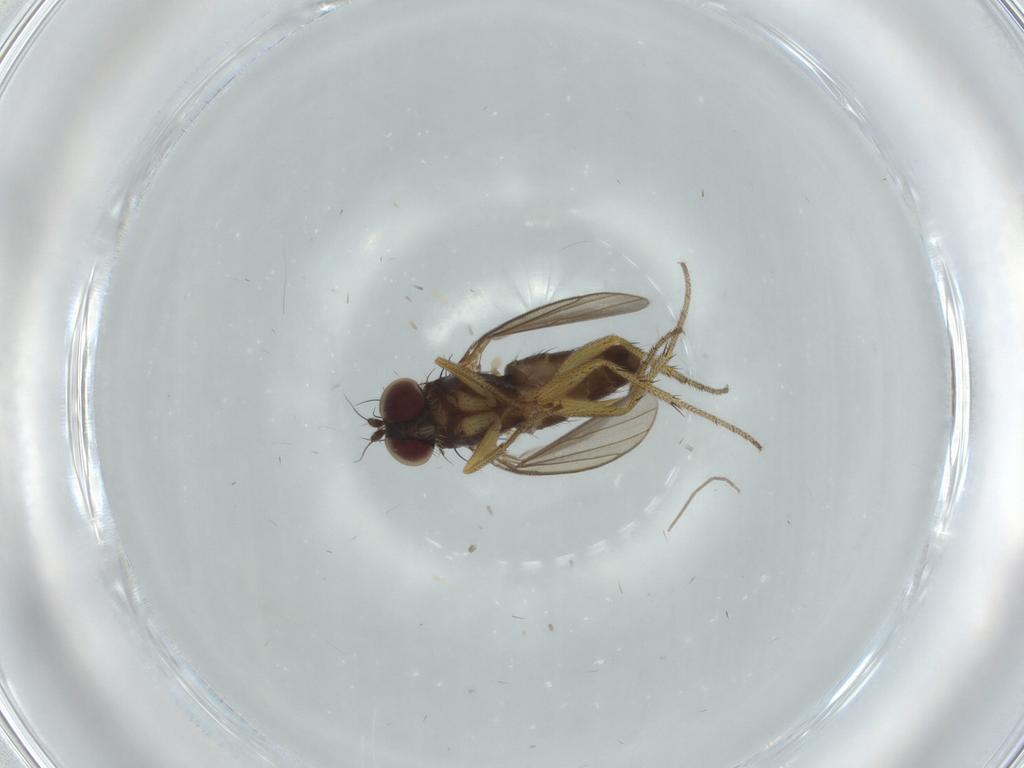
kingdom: Animalia
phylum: Arthropoda
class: Insecta
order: Diptera
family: Dolichopodidae
